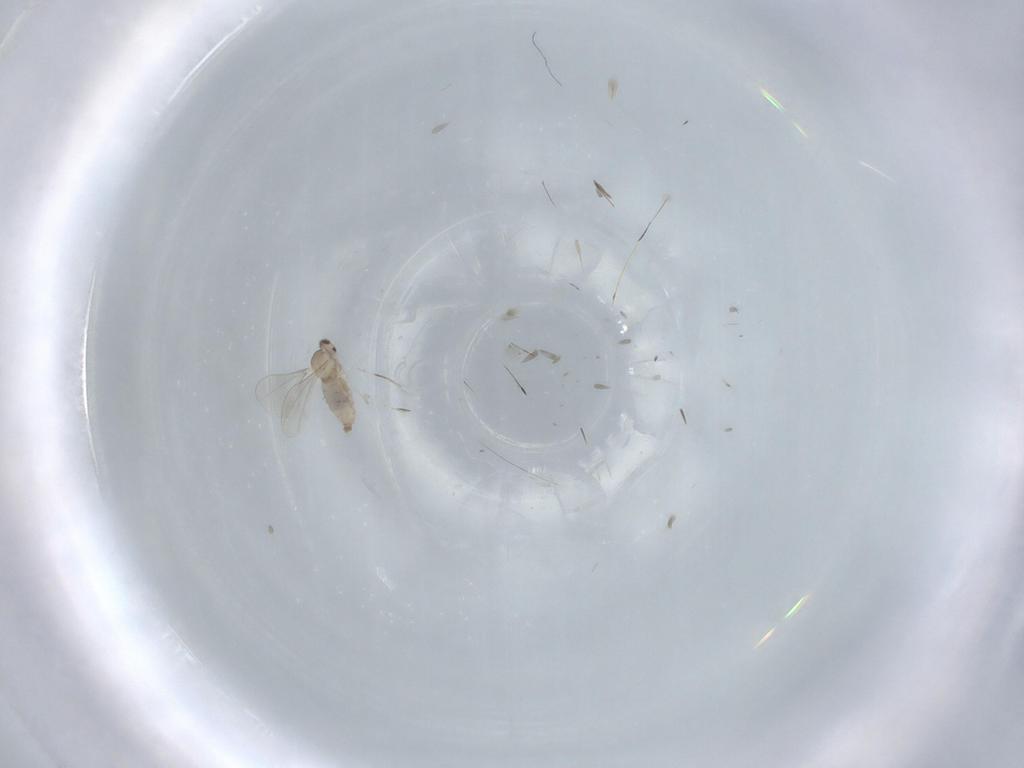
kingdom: Animalia
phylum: Arthropoda
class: Insecta
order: Diptera
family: Cecidomyiidae
